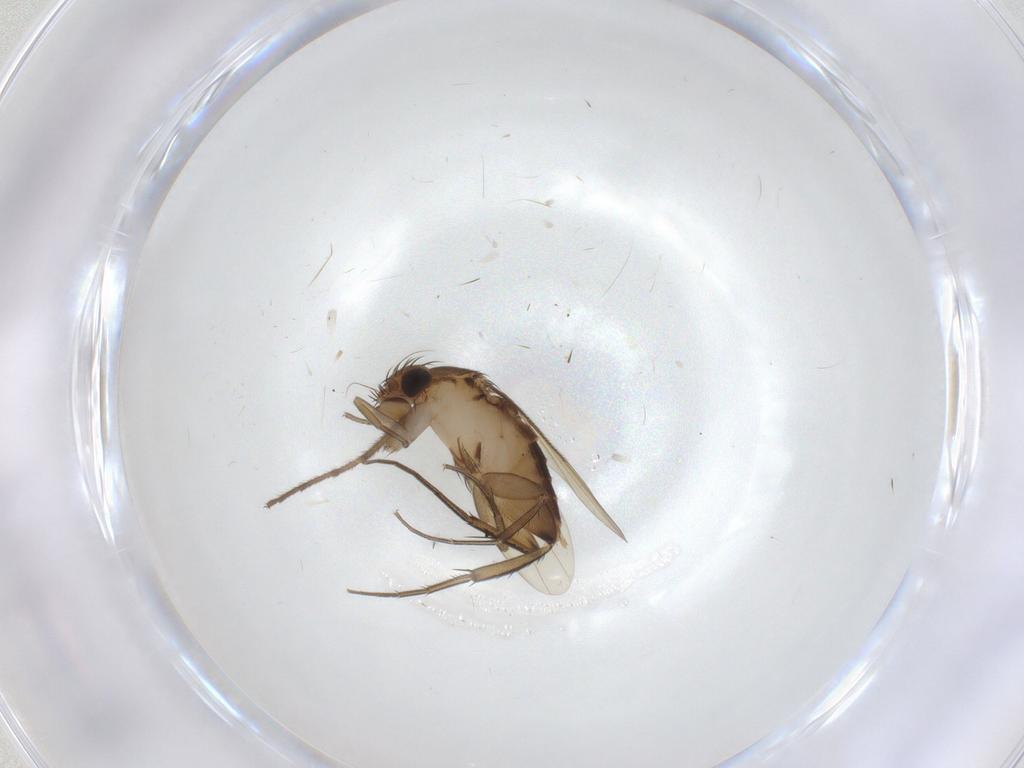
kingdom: Animalia
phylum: Arthropoda
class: Insecta
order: Diptera
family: Phoridae
